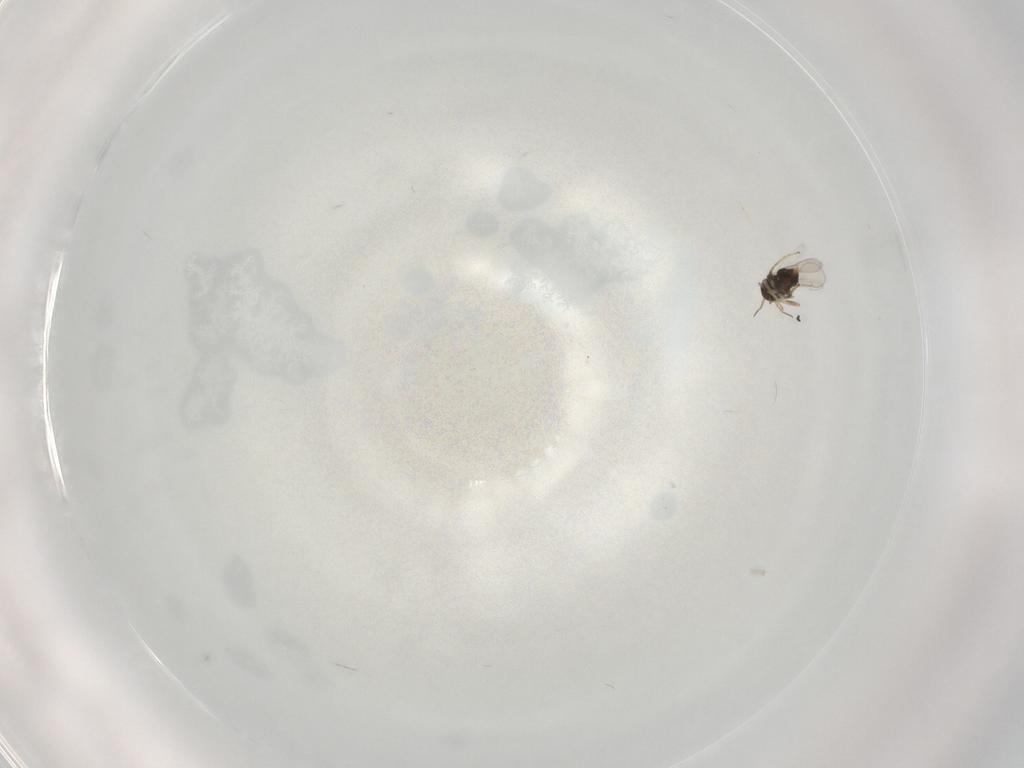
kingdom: Animalia
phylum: Arthropoda
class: Insecta
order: Hymenoptera
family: Aphelinidae
